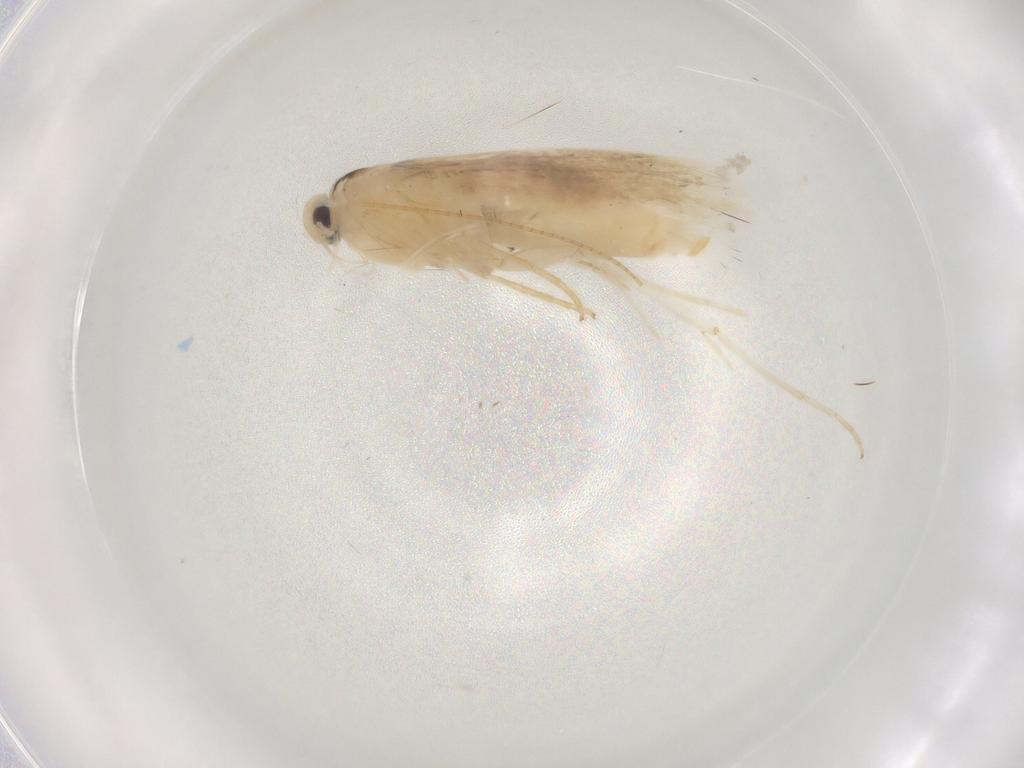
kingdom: Animalia
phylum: Arthropoda
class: Insecta
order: Lepidoptera
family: Gracillariidae
